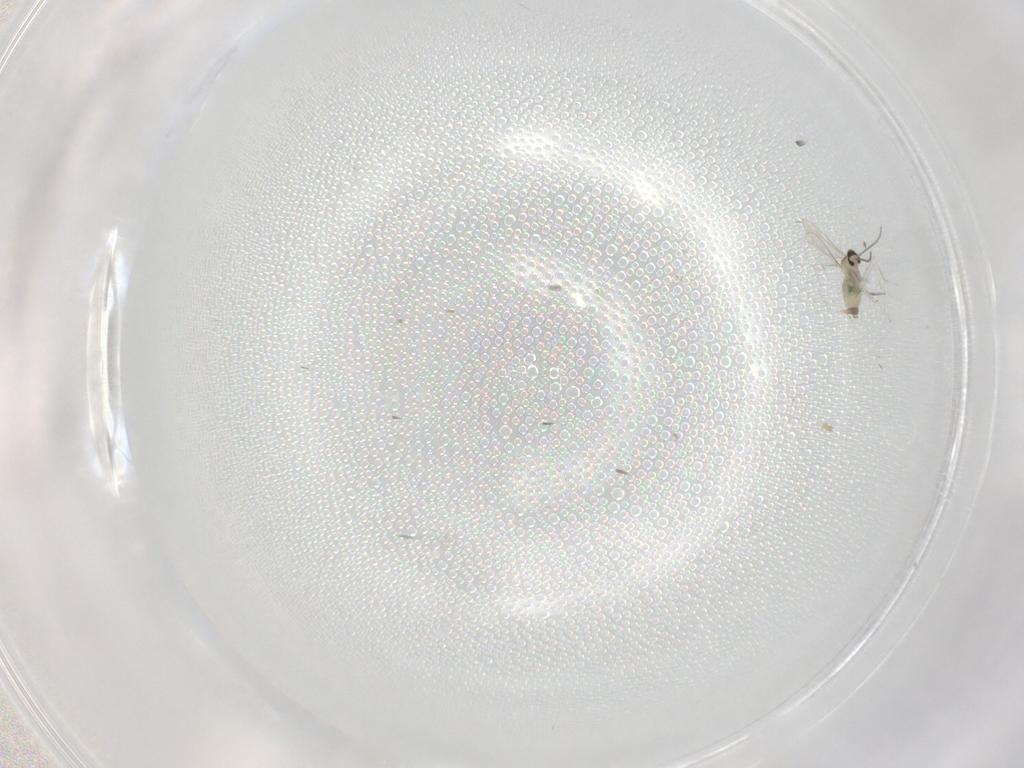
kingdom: Animalia
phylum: Arthropoda
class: Insecta
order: Diptera
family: Cecidomyiidae
